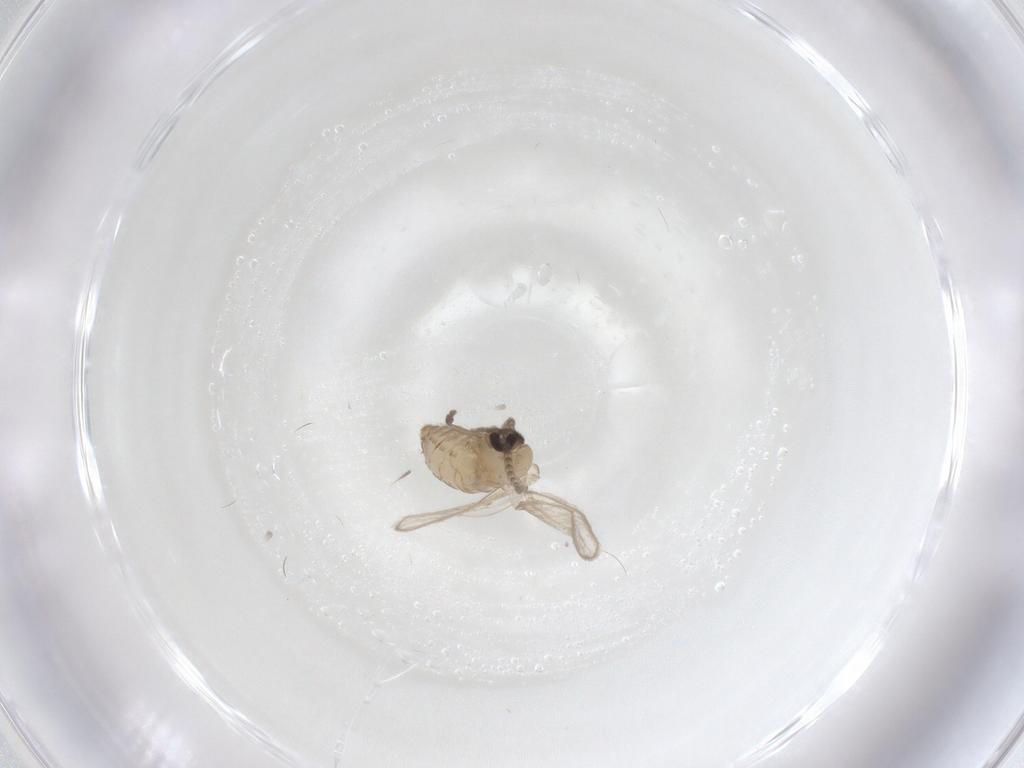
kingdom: Animalia
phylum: Arthropoda
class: Insecta
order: Diptera
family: Psychodidae
